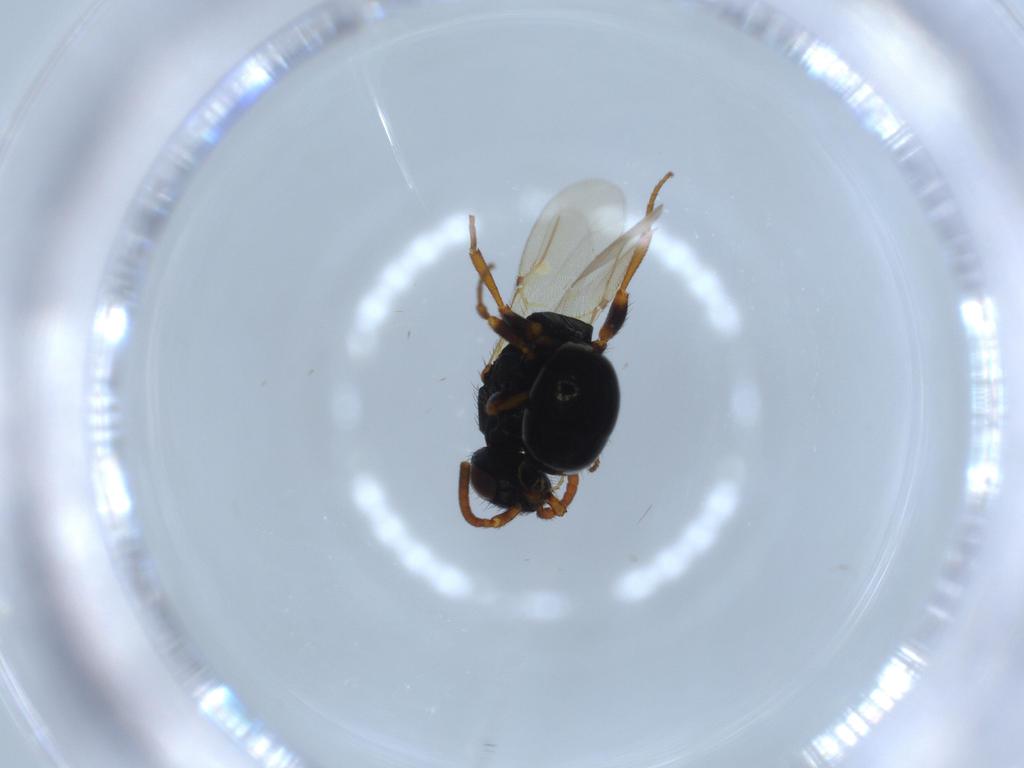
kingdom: Animalia
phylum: Arthropoda
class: Insecta
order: Hymenoptera
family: Bethylidae
